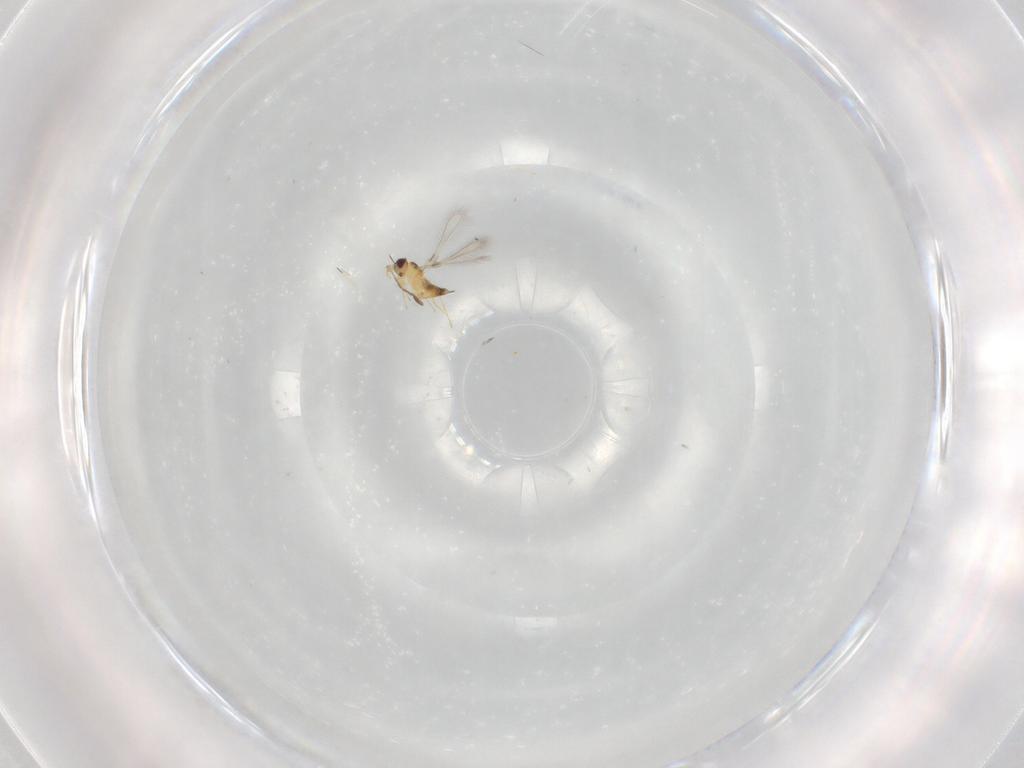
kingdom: Animalia
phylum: Arthropoda
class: Insecta
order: Hymenoptera
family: Mymaridae
